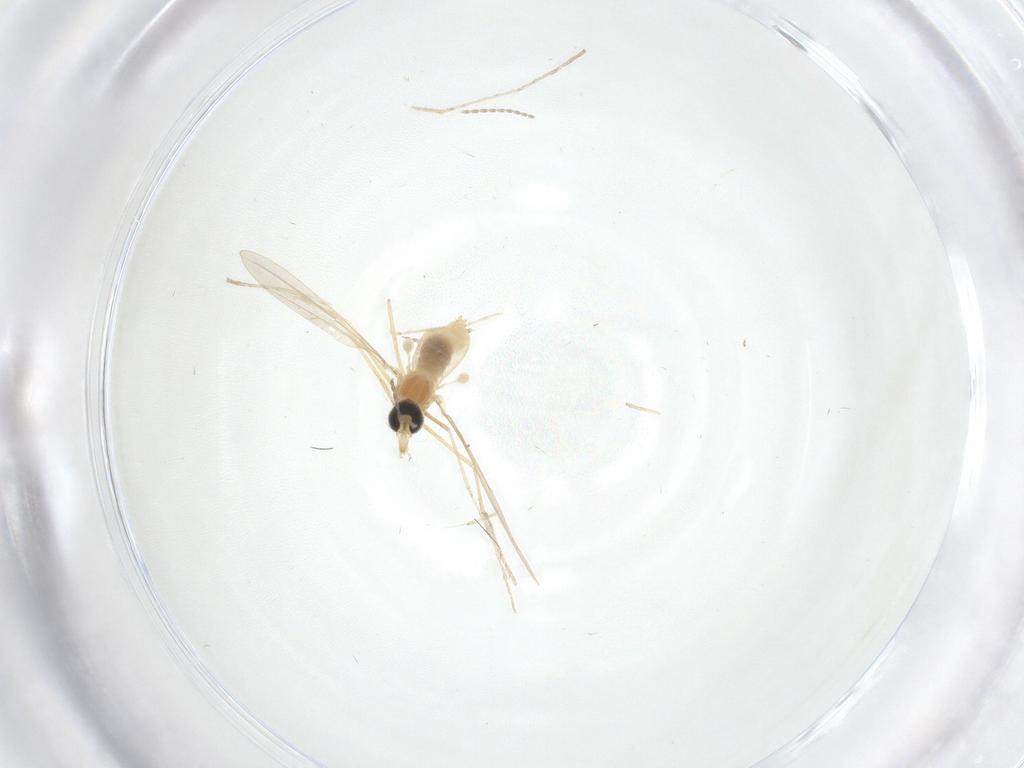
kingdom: Animalia
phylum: Arthropoda
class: Insecta
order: Diptera
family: Cecidomyiidae
